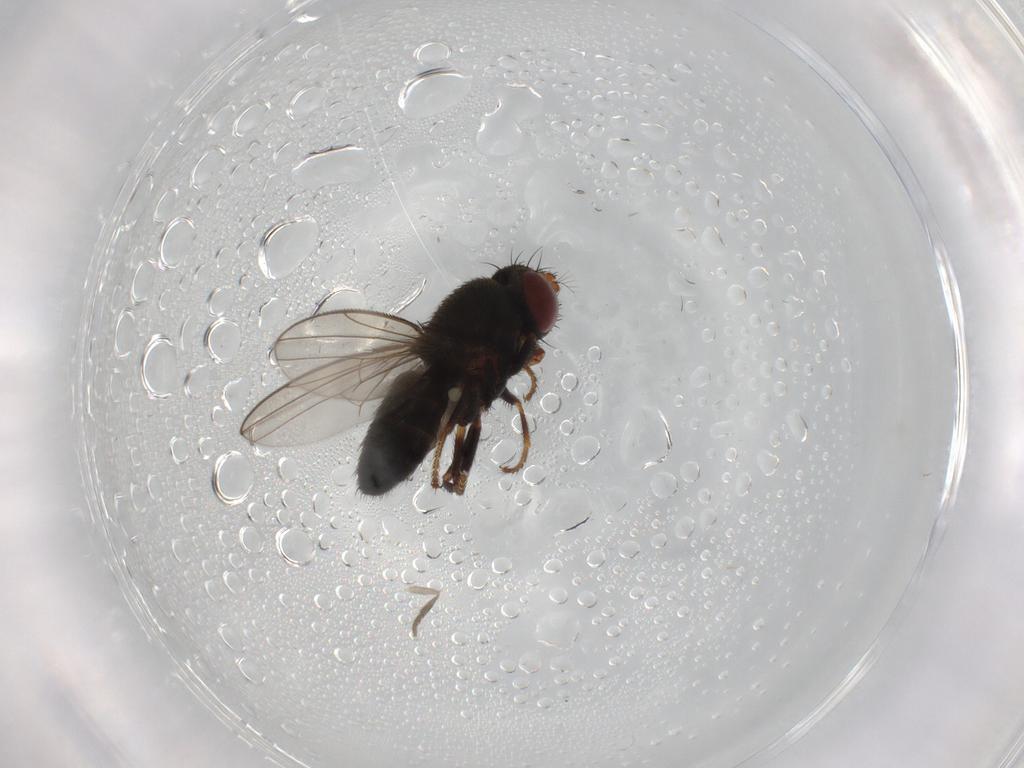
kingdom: Animalia
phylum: Arthropoda
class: Insecta
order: Diptera
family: Psychodidae
